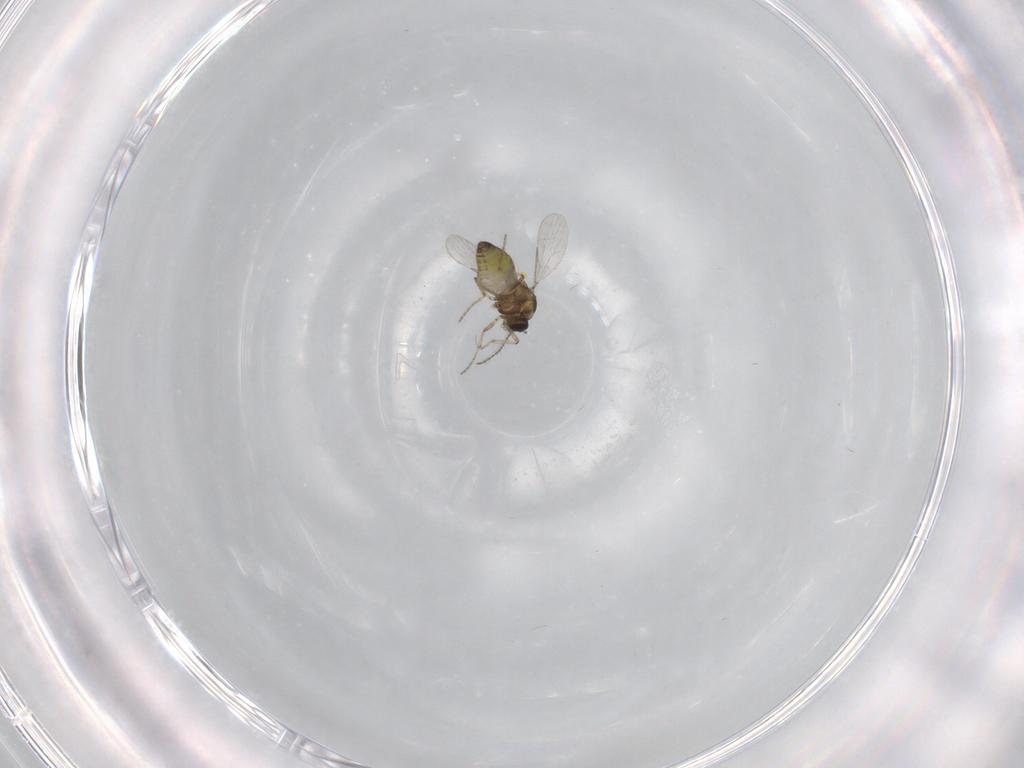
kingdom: Animalia
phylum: Arthropoda
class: Insecta
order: Diptera
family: Ceratopogonidae
